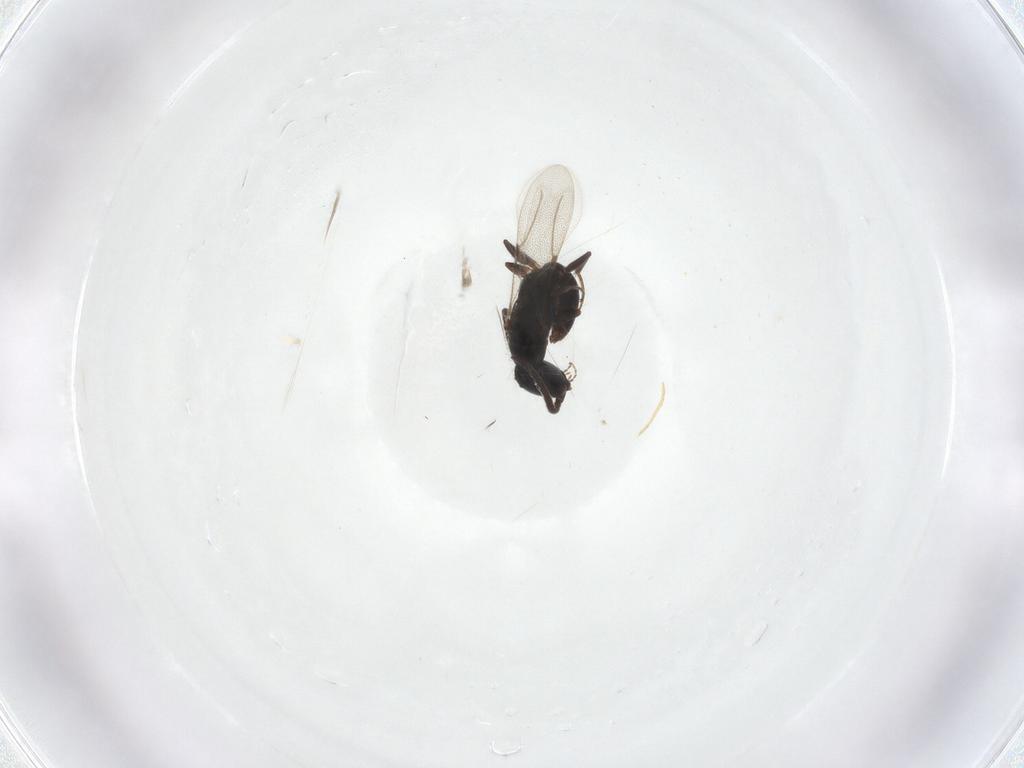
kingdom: Animalia
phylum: Arthropoda
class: Insecta
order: Hymenoptera
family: Bethylidae
